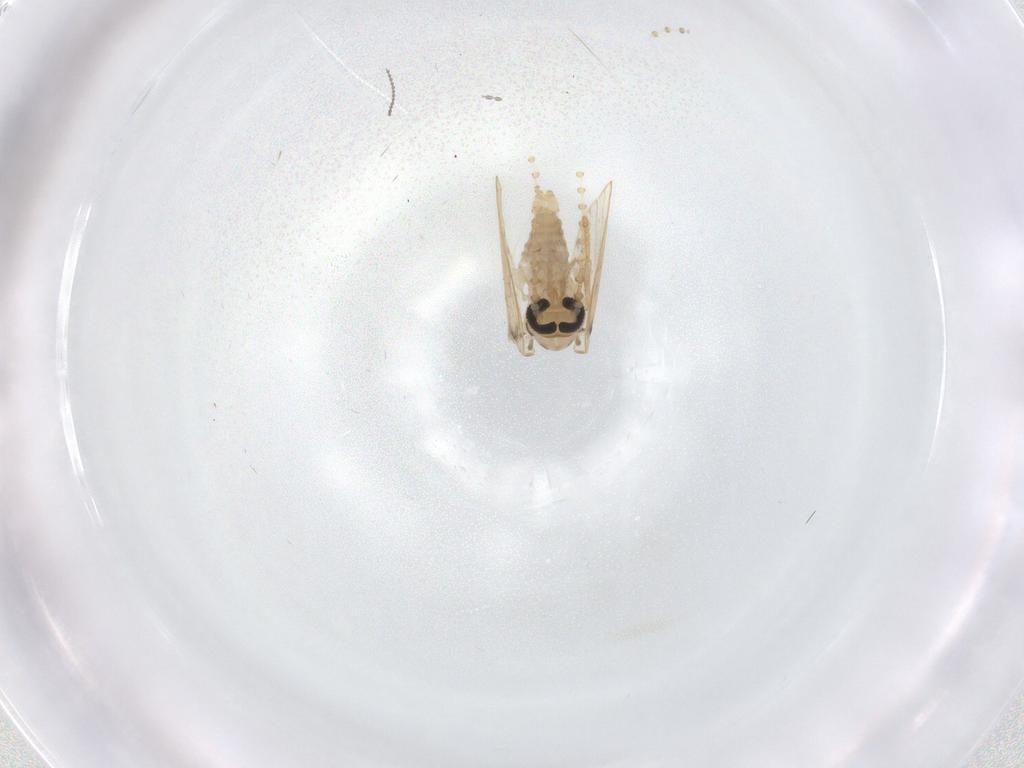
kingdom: Animalia
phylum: Arthropoda
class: Insecta
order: Diptera
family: Psychodidae
